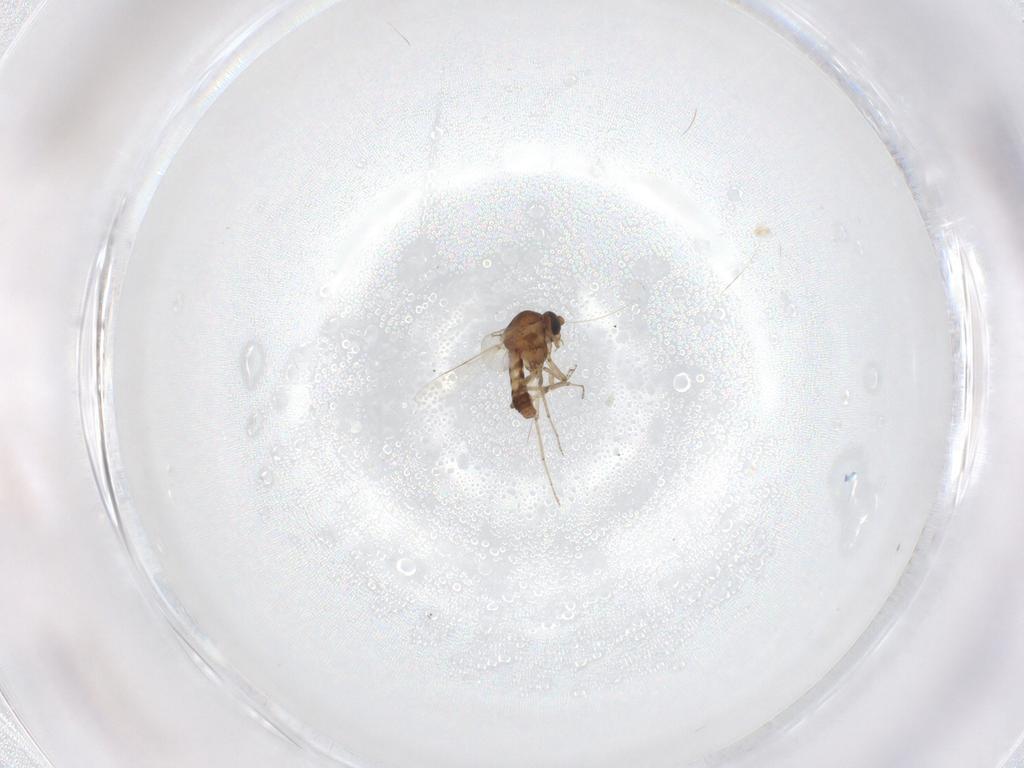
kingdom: Animalia
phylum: Arthropoda
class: Insecta
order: Diptera
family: Ceratopogonidae
